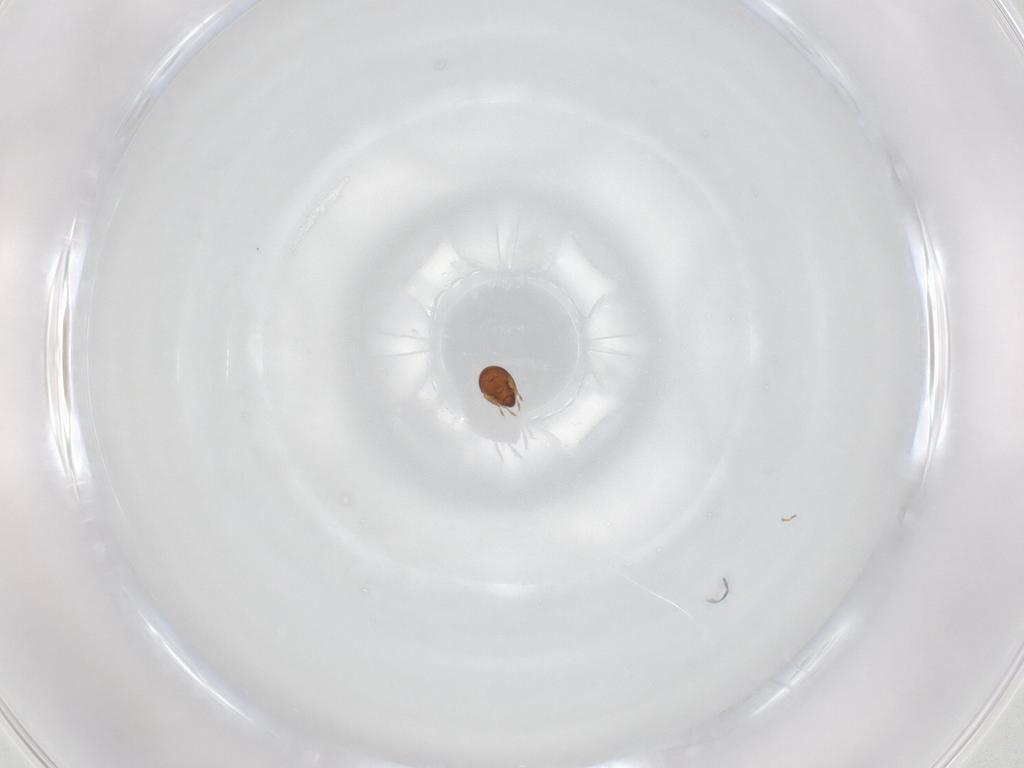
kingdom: Animalia
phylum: Arthropoda
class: Arachnida
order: Sarcoptiformes
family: Tegoribatidae
